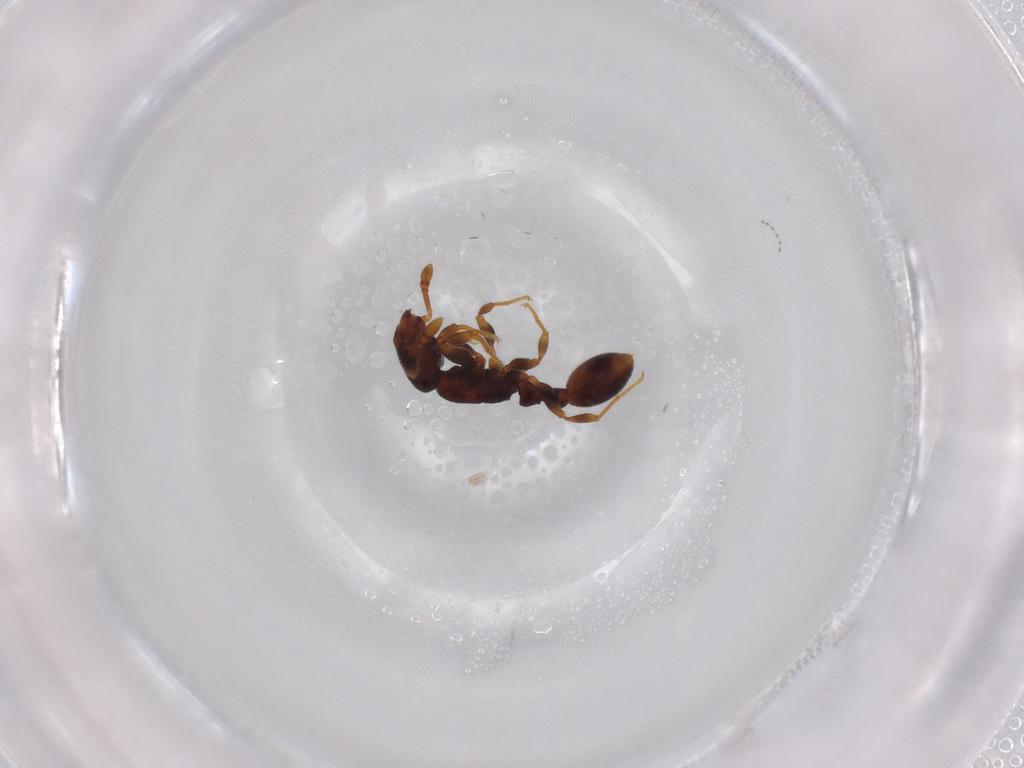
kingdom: Animalia
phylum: Arthropoda
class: Insecta
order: Hymenoptera
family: Formicidae
